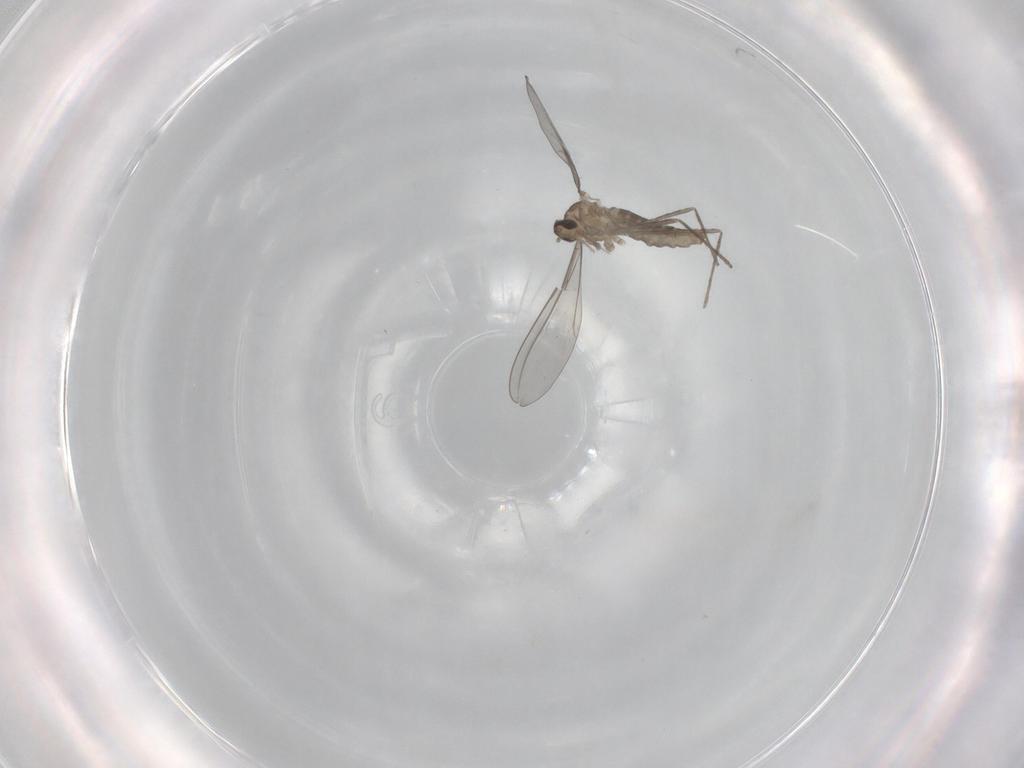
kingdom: Animalia
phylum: Arthropoda
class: Insecta
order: Diptera
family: Cecidomyiidae
